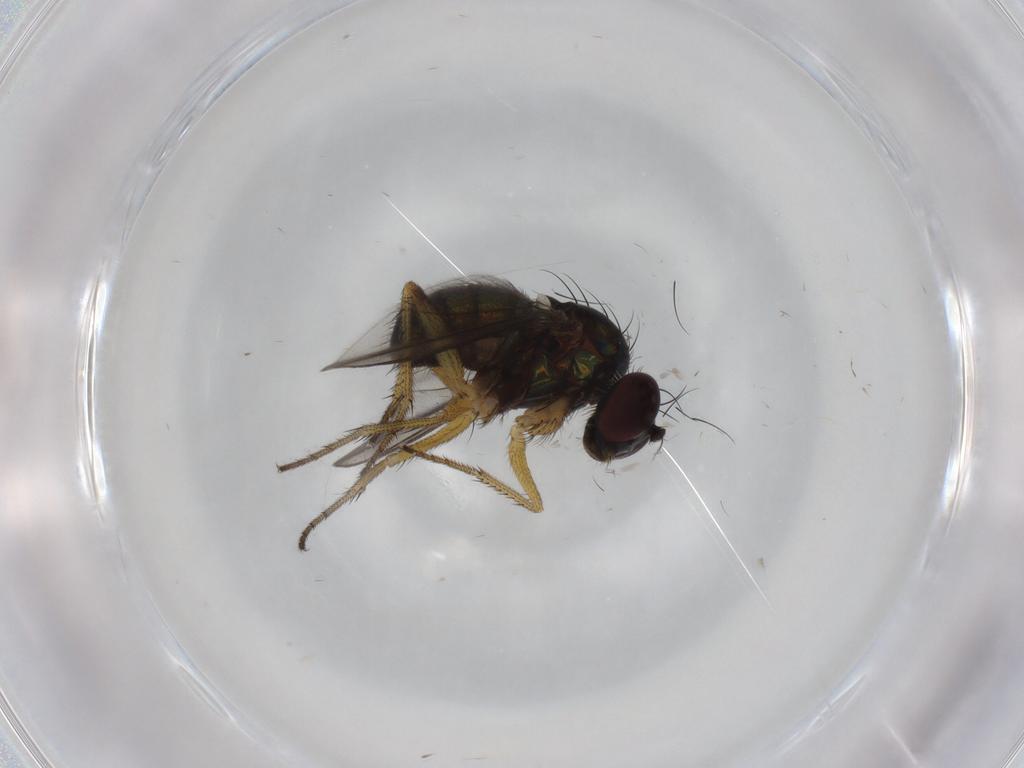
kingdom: Animalia
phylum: Arthropoda
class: Insecta
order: Diptera
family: Dolichopodidae
